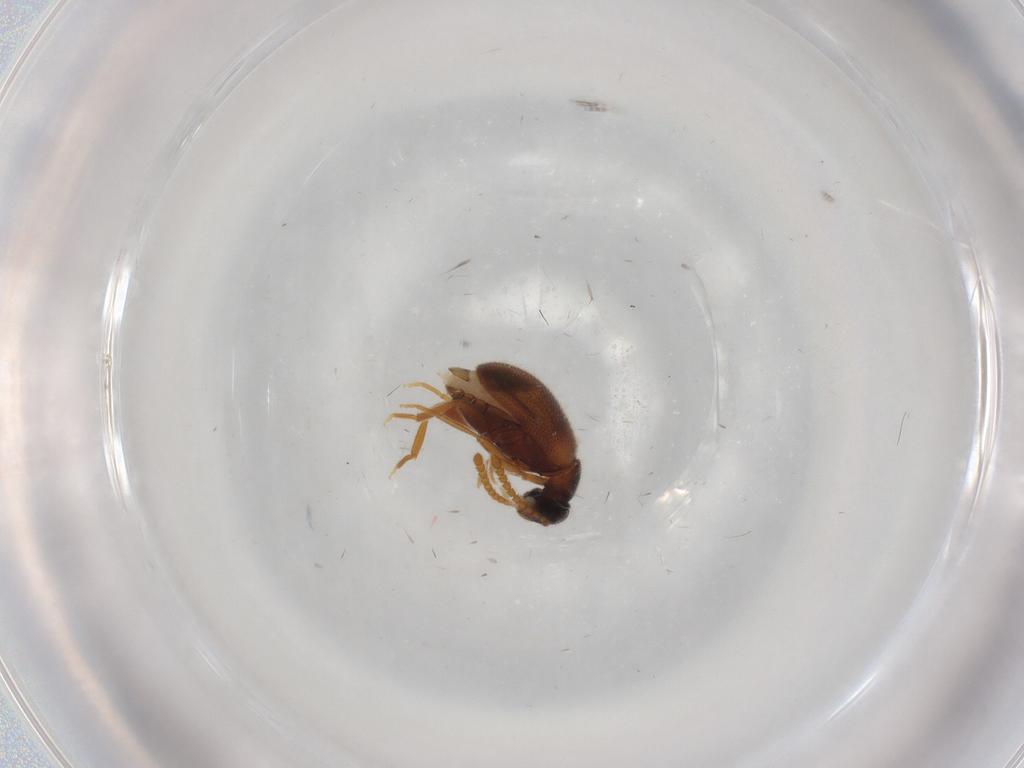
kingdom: Animalia
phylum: Arthropoda
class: Insecta
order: Coleoptera
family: Aderidae
